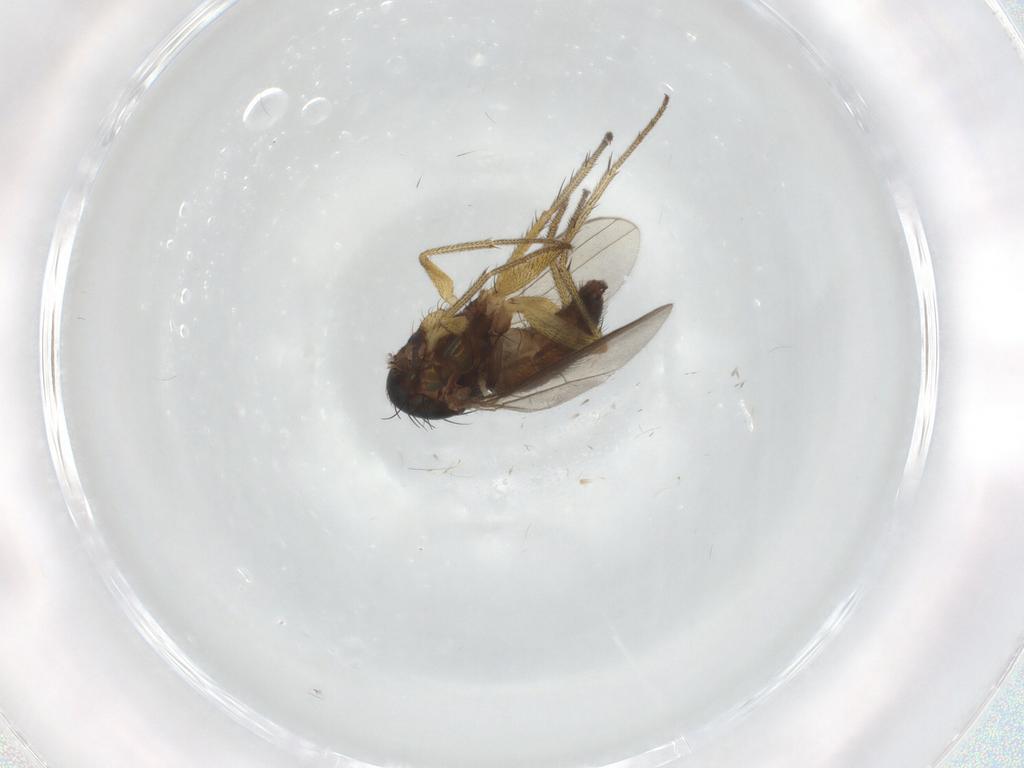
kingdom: Animalia
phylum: Arthropoda
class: Insecta
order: Diptera
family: Dolichopodidae
